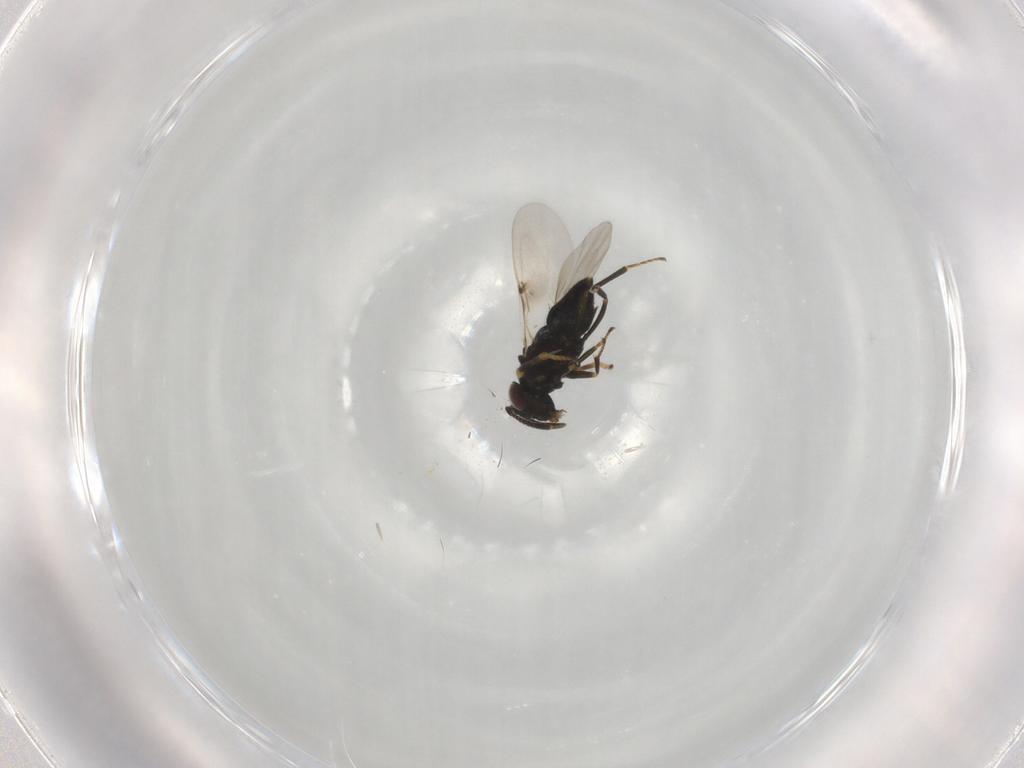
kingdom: Animalia
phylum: Arthropoda
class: Insecta
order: Hymenoptera
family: Encyrtidae
